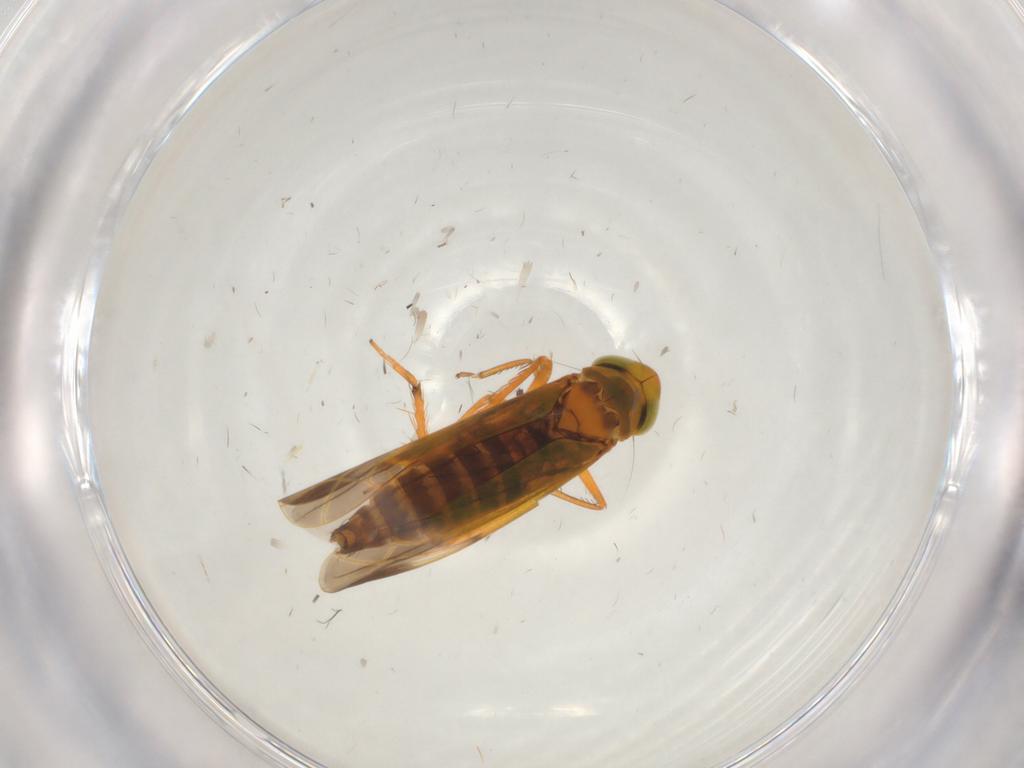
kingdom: Animalia
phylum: Arthropoda
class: Insecta
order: Hemiptera
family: Cicadellidae
